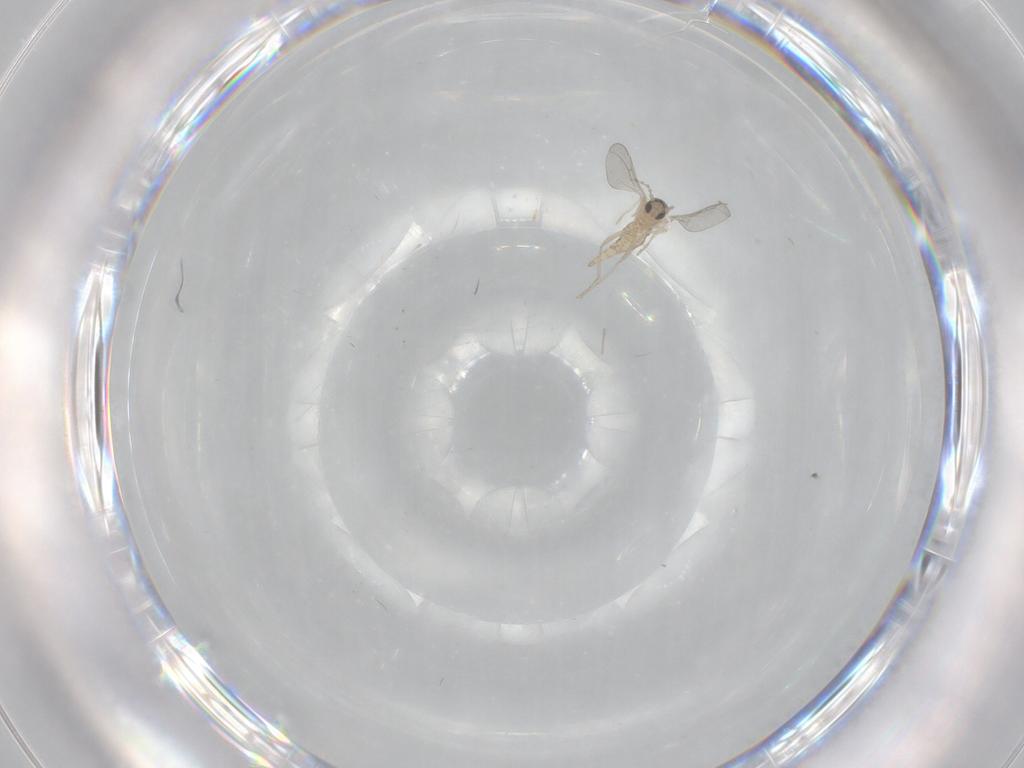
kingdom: Animalia
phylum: Arthropoda
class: Insecta
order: Diptera
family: Cecidomyiidae
